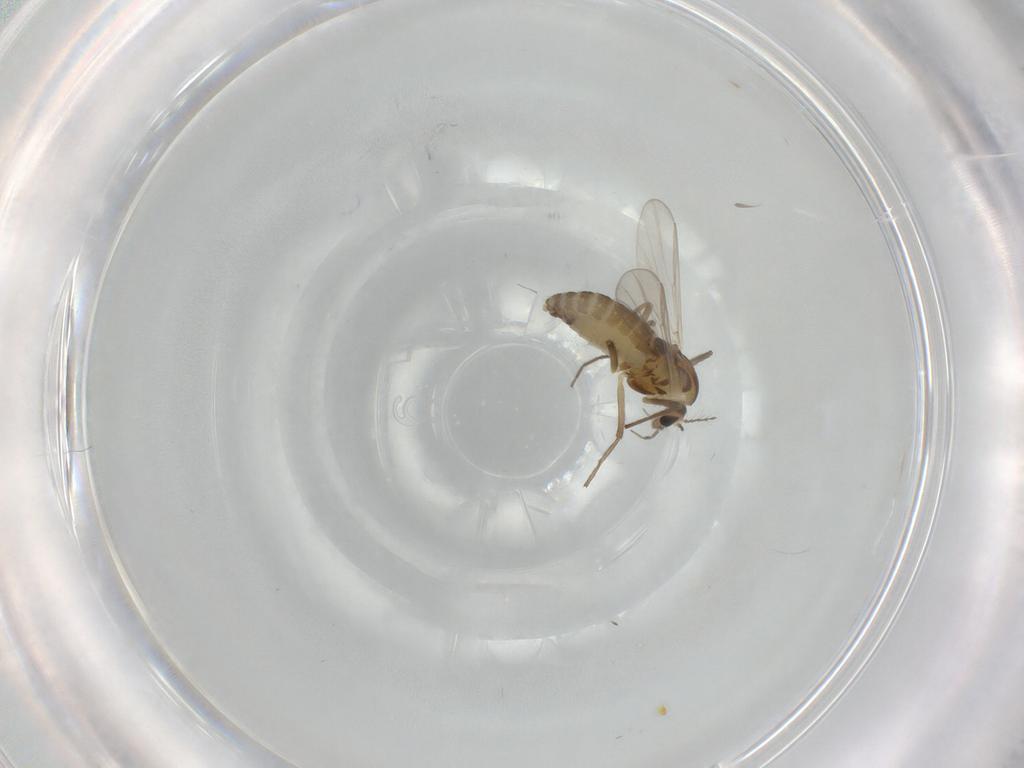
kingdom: Animalia
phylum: Arthropoda
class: Insecta
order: Diptera
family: Chironomidae
